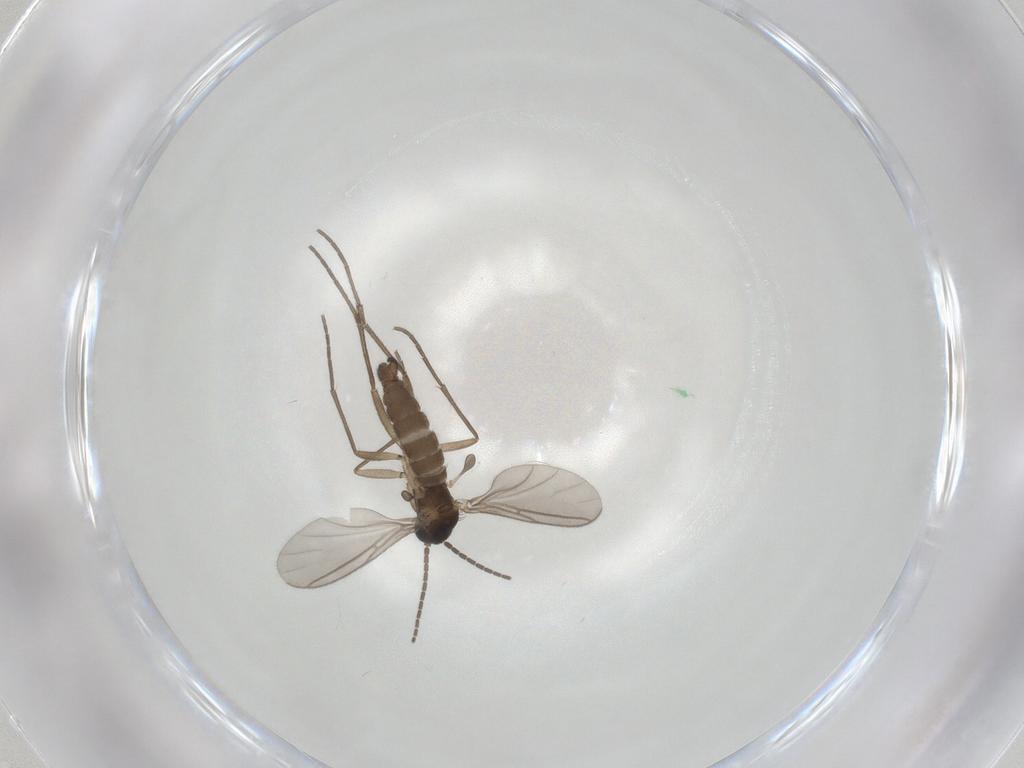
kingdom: Animalia
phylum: Arthropoda
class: Insecta
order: Diptera
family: Sciaridae
